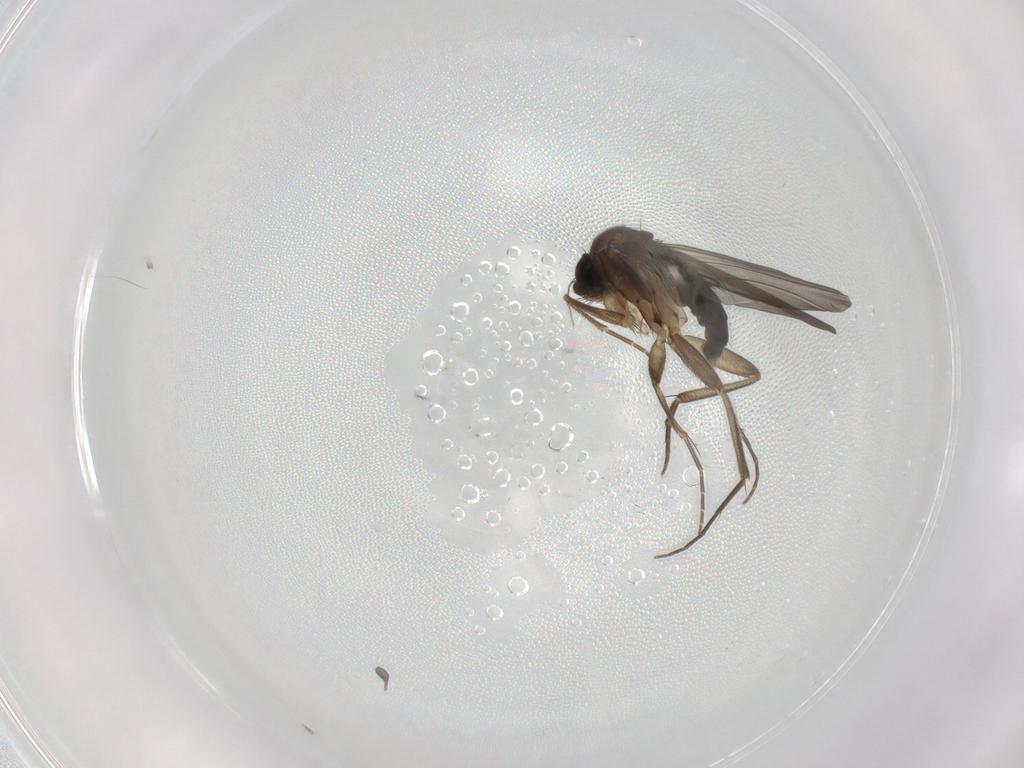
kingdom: Animalia
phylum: Arthropoda
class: Insecta
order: Diptera
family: Sciaridae
